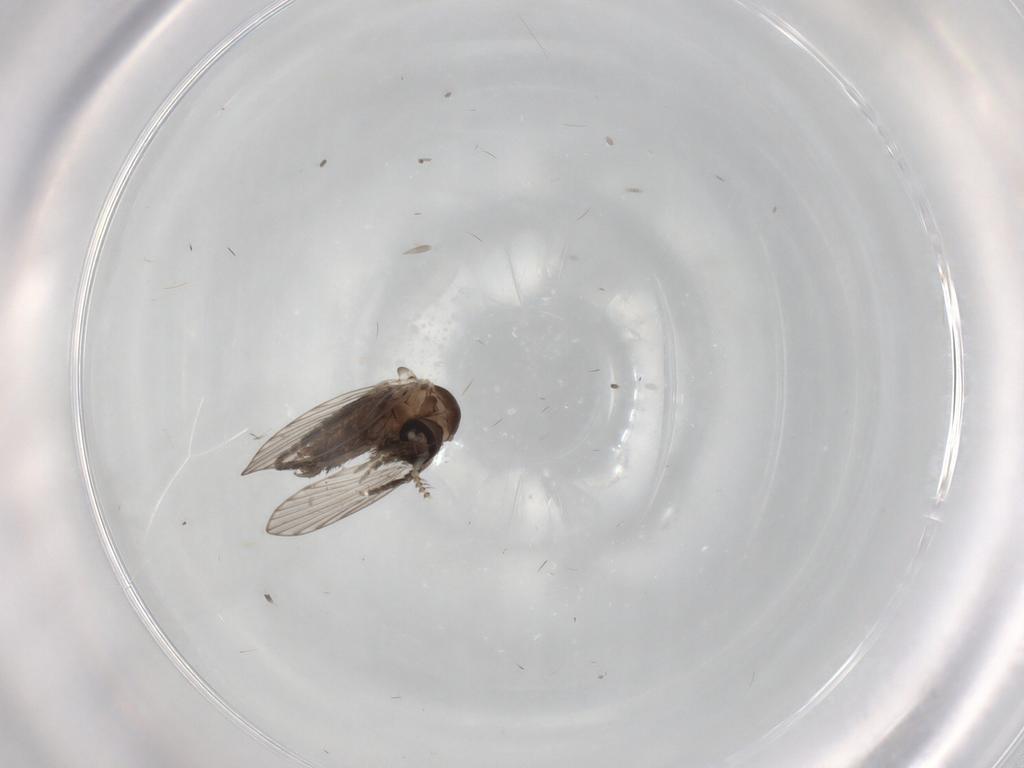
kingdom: Animalia
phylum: Arthropoda
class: Insecta
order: Diptera
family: Psychodidae
